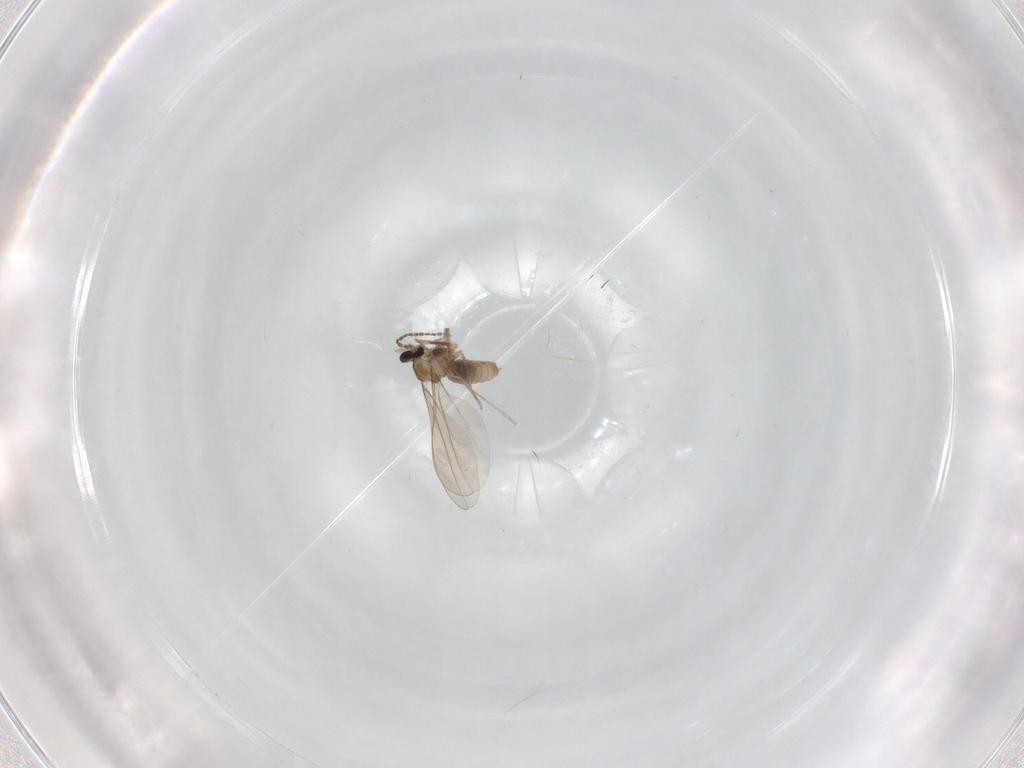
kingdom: Animalia
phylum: Arthropoda
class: Insecta
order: Diptera
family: Cecidomyiidae
